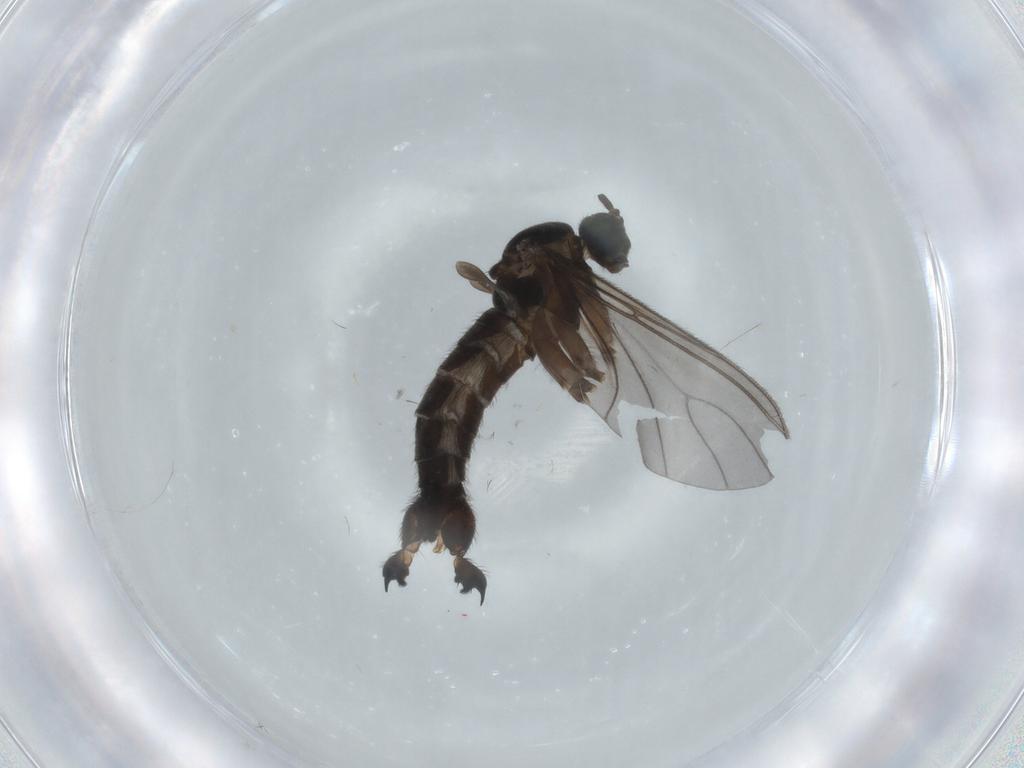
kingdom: Animalia
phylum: Arthropoda
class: Insecta
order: Diptera
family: Sciaridae
